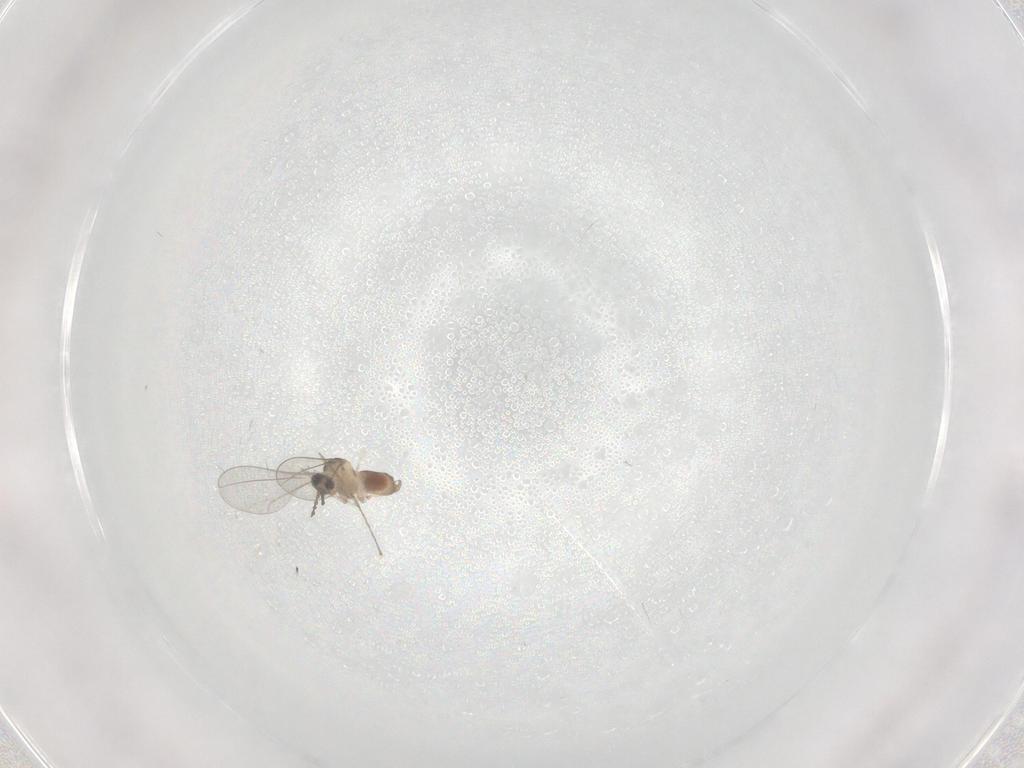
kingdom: Animalia
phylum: Arthropoda
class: Insecta
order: Diptera
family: Cecidomyiidae
